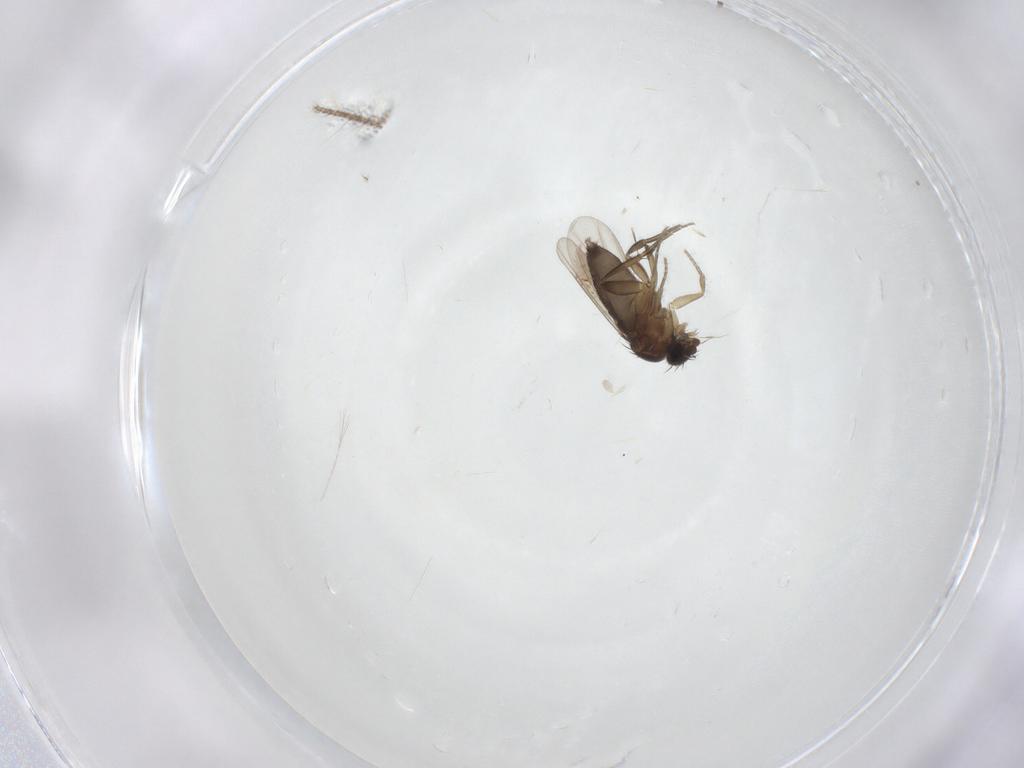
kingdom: Animalia
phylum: Arthropoda
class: Insecta
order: Diptera
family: Phoridae
